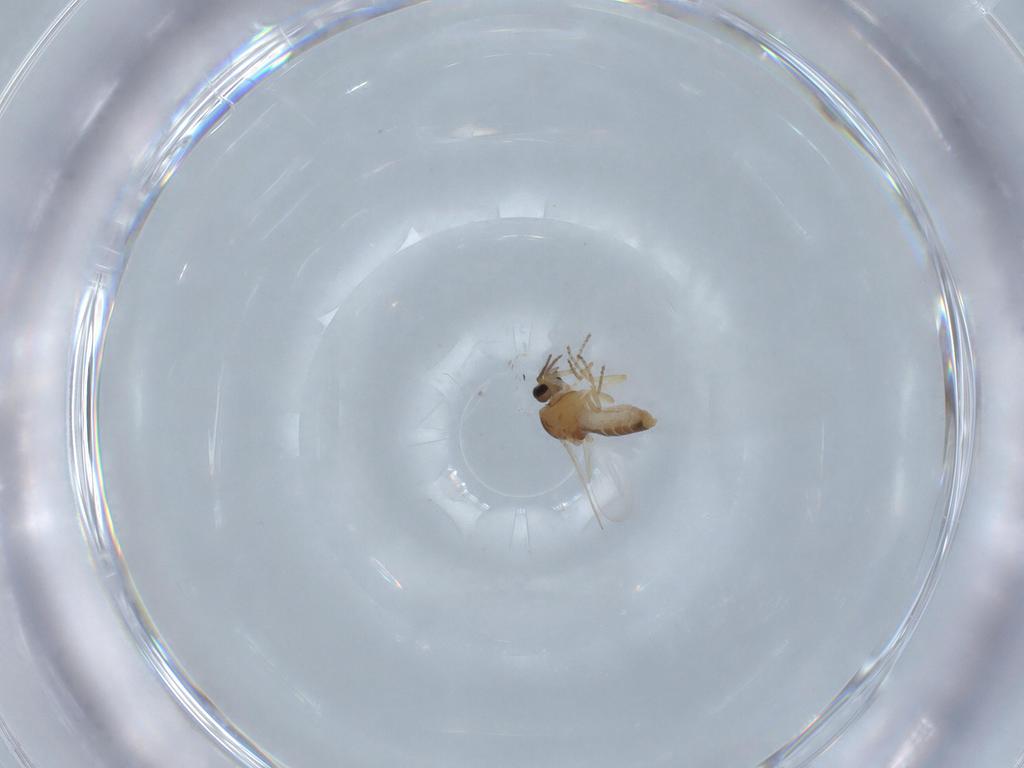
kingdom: Animalia
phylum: Arthropoda
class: Insecta
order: Diptera
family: Ceratopogonidae
